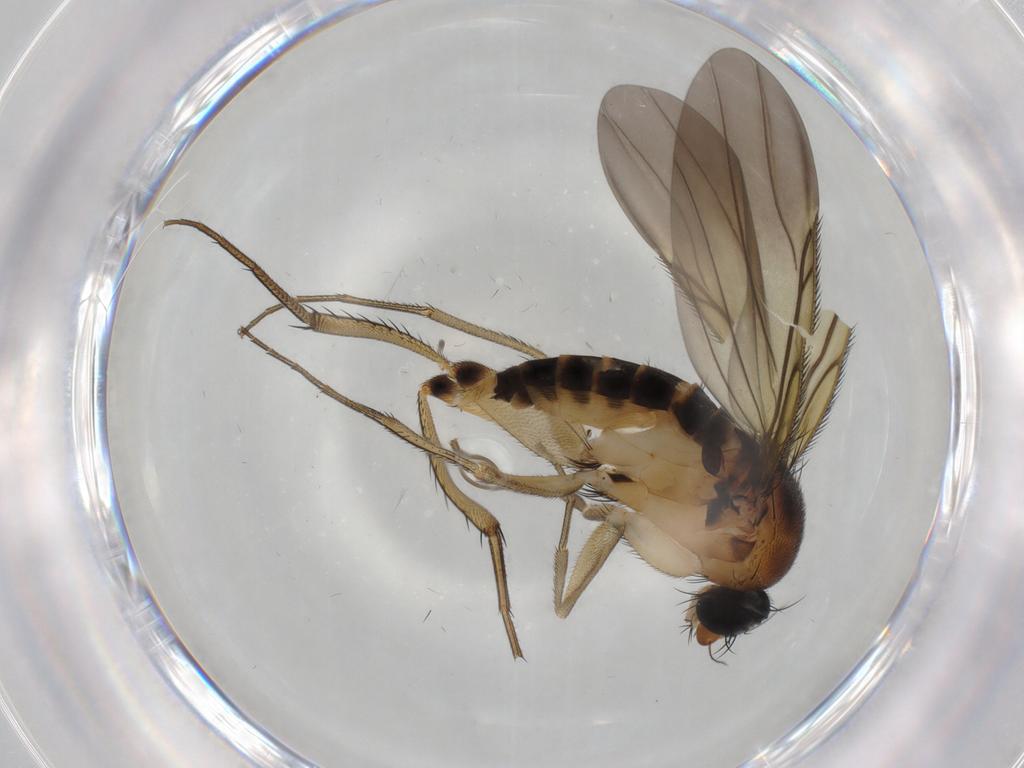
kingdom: Animalia
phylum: Arthropoda
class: Insecta
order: Diptera
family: Phoridae
